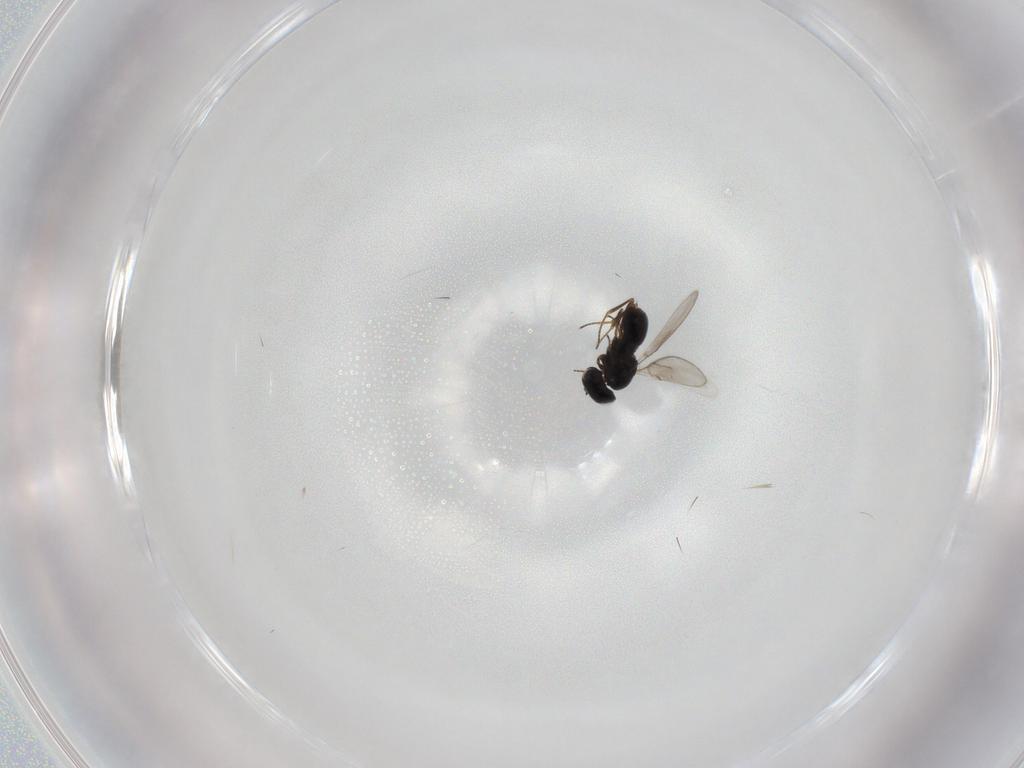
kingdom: Animalia
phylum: Arthropoda
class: Insecta
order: Hymenoptera
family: Scelionidae
